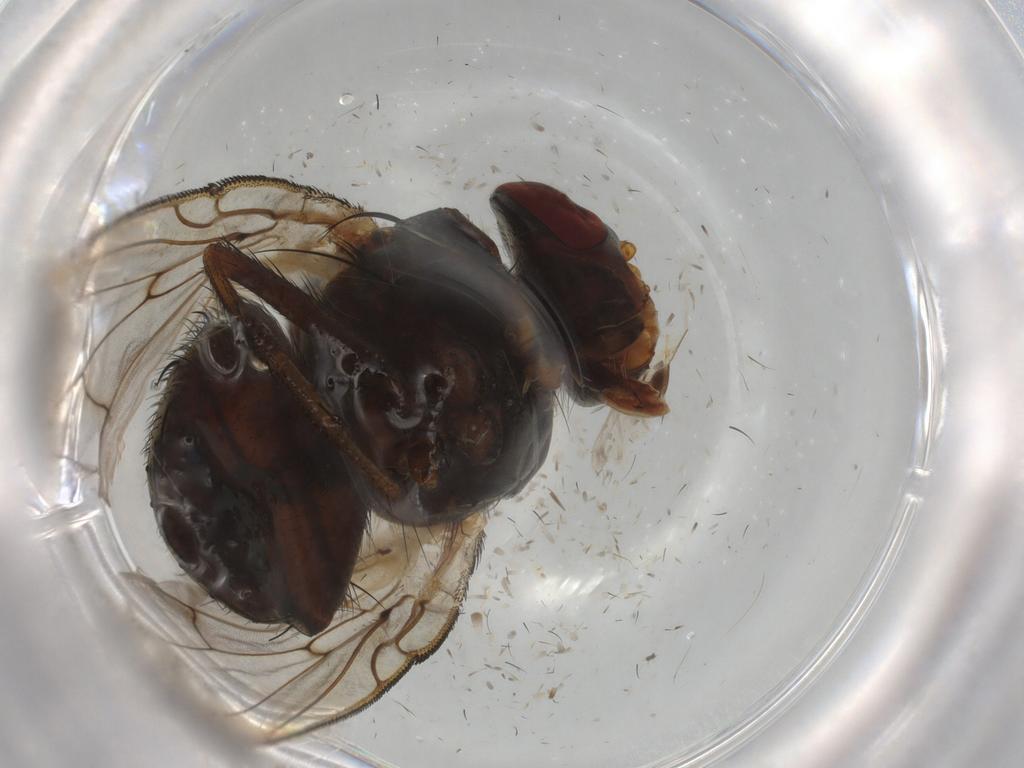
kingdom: Animalia
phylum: Arthropoda
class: Insecta
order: Diptera
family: Tachinidae
